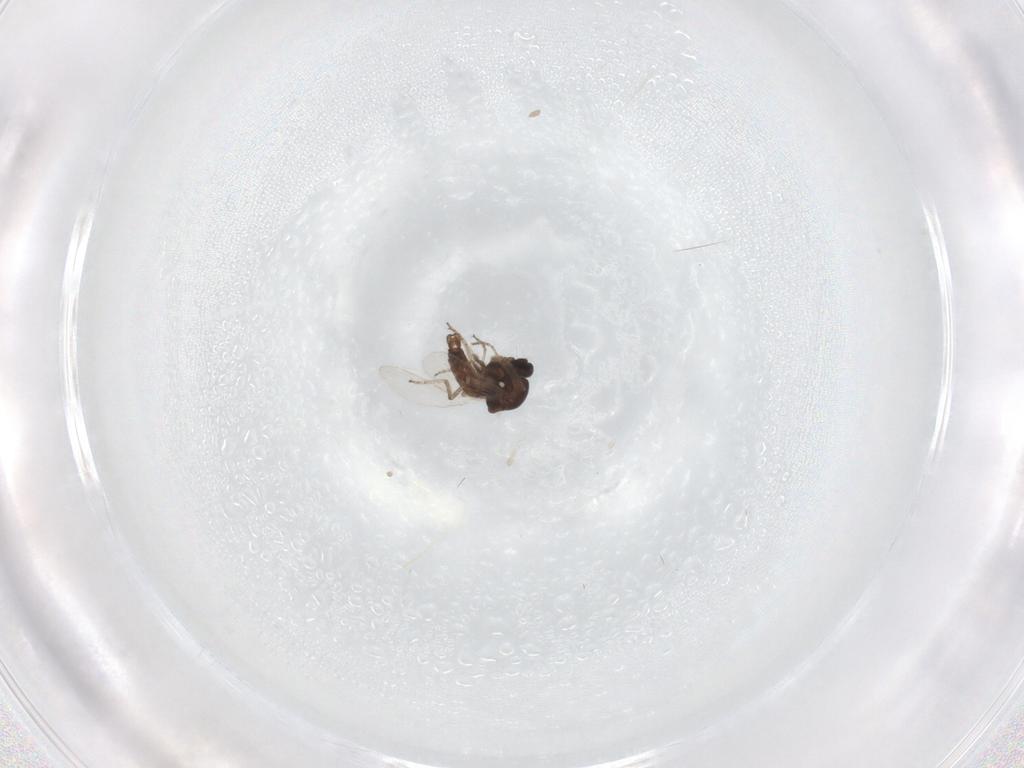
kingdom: Animalia
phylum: Arthropoda
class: Insecta
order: Diptera
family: Ceratopogonidae
